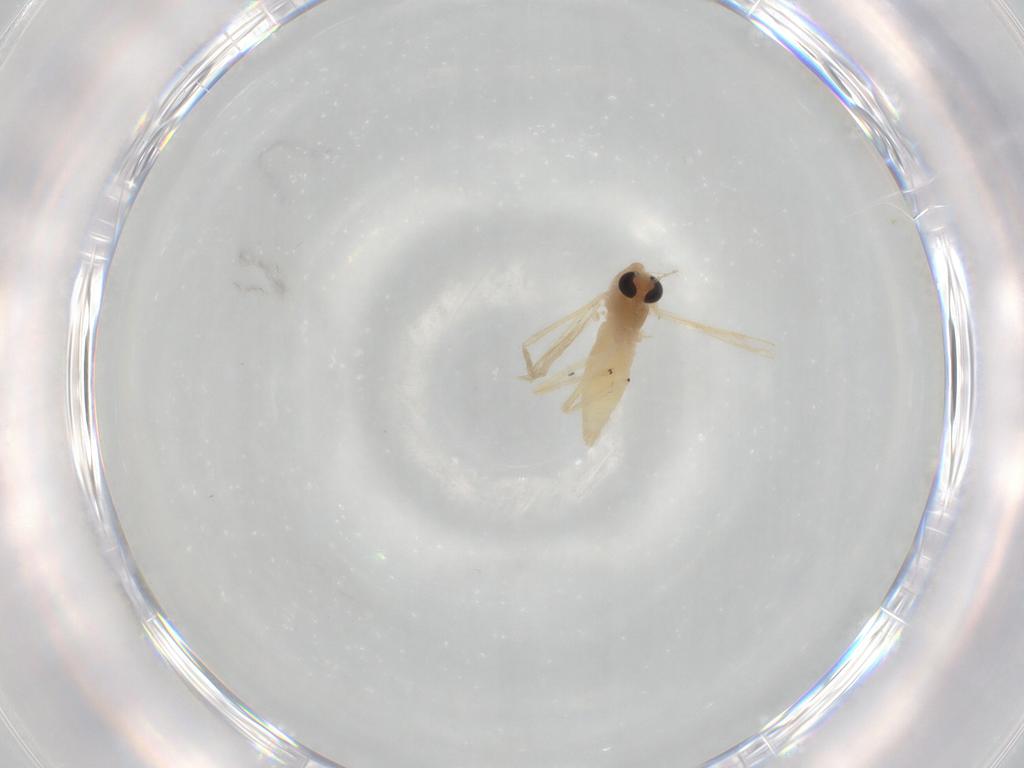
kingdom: Animalia
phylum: Arthropoda
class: Insecta
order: Diptera
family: Chironomidae
